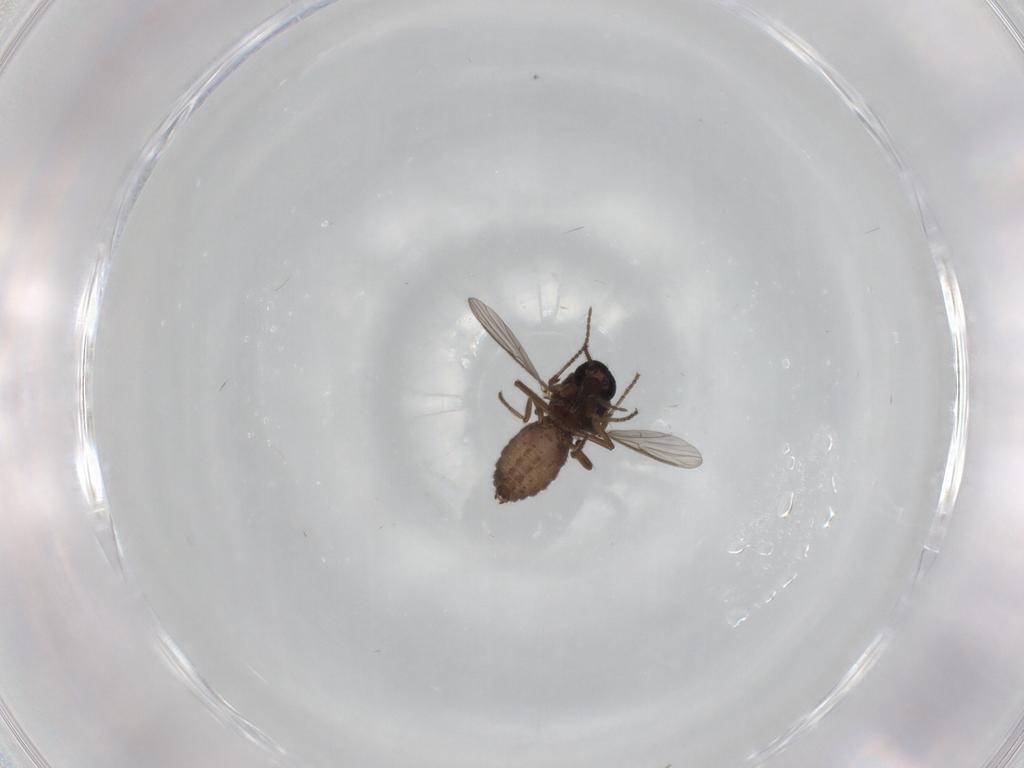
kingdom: Animalia
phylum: Arthropoda
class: Insecta
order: Diptera
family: Ceratopogonidae
